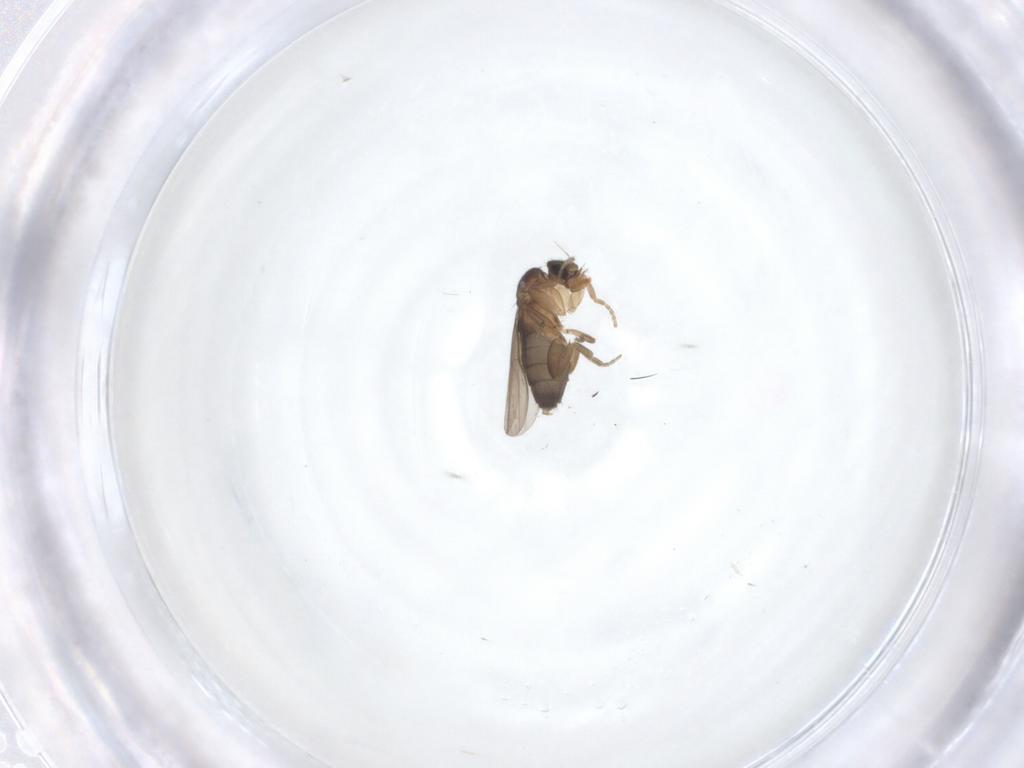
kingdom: Animalia
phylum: Arthropoda
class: Insecta
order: Diptera
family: Phoridae
